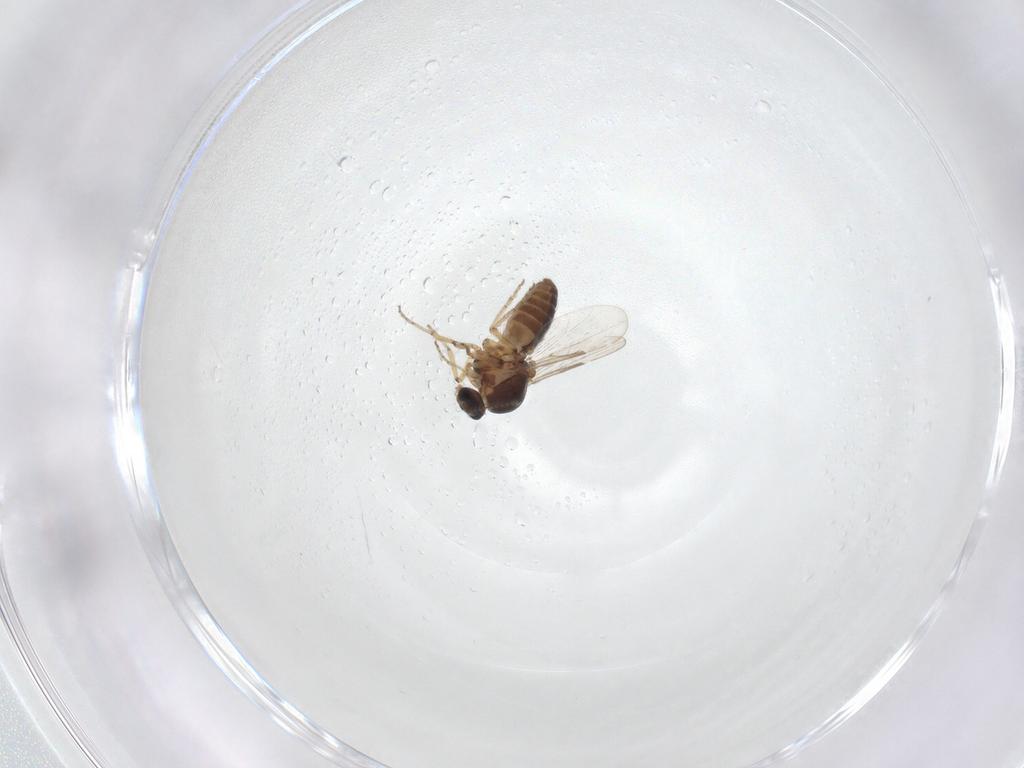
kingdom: Animalia
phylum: Arthropoda
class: Insecta
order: Diptera
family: Ceratopogonidae
